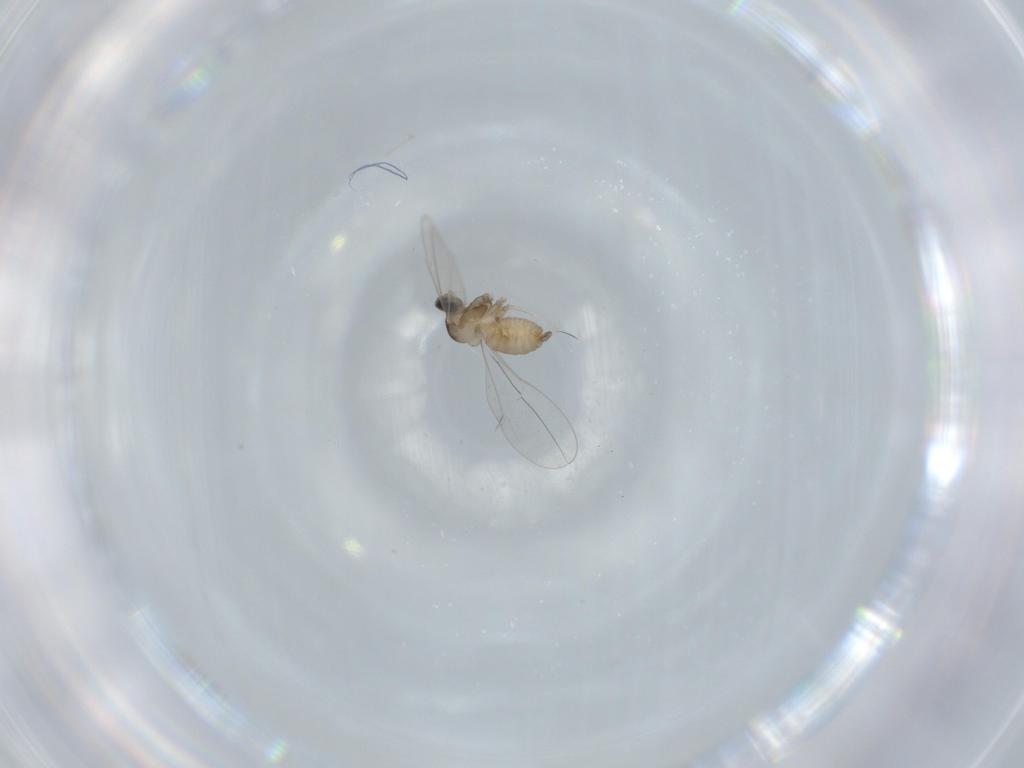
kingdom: Animalia
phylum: Arthropoda
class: Insecta
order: Diptera
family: Cecidomyiidae
